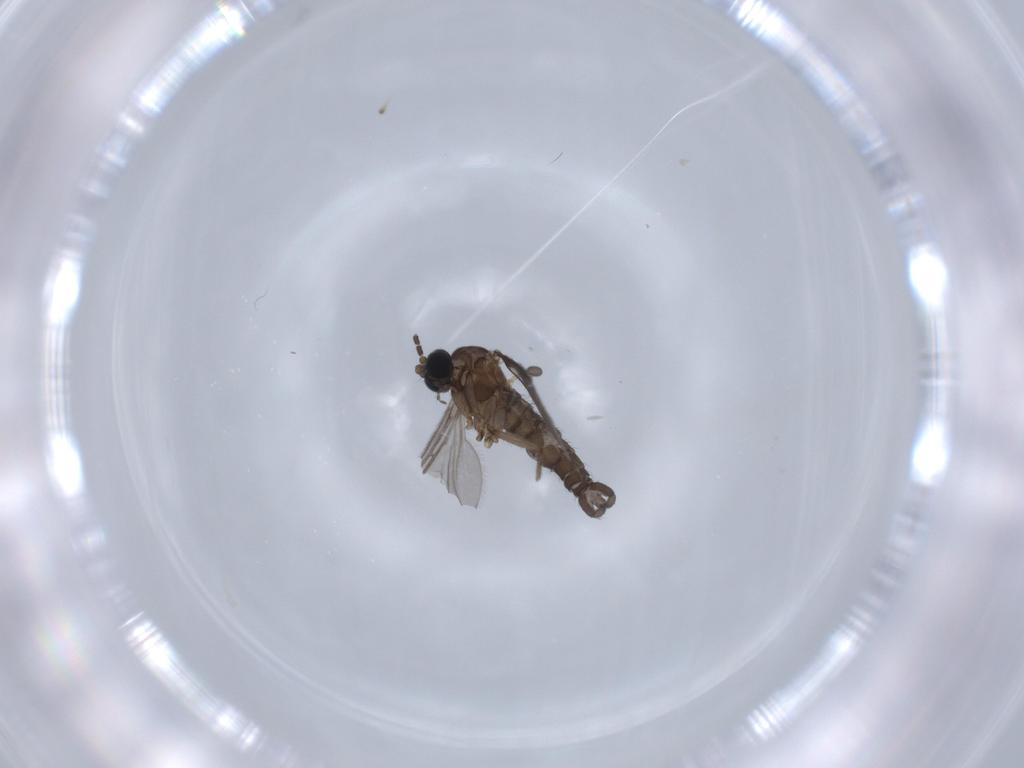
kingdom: Animalia
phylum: Arthropoda
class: Insecta
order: Diptera
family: Sciaridae
